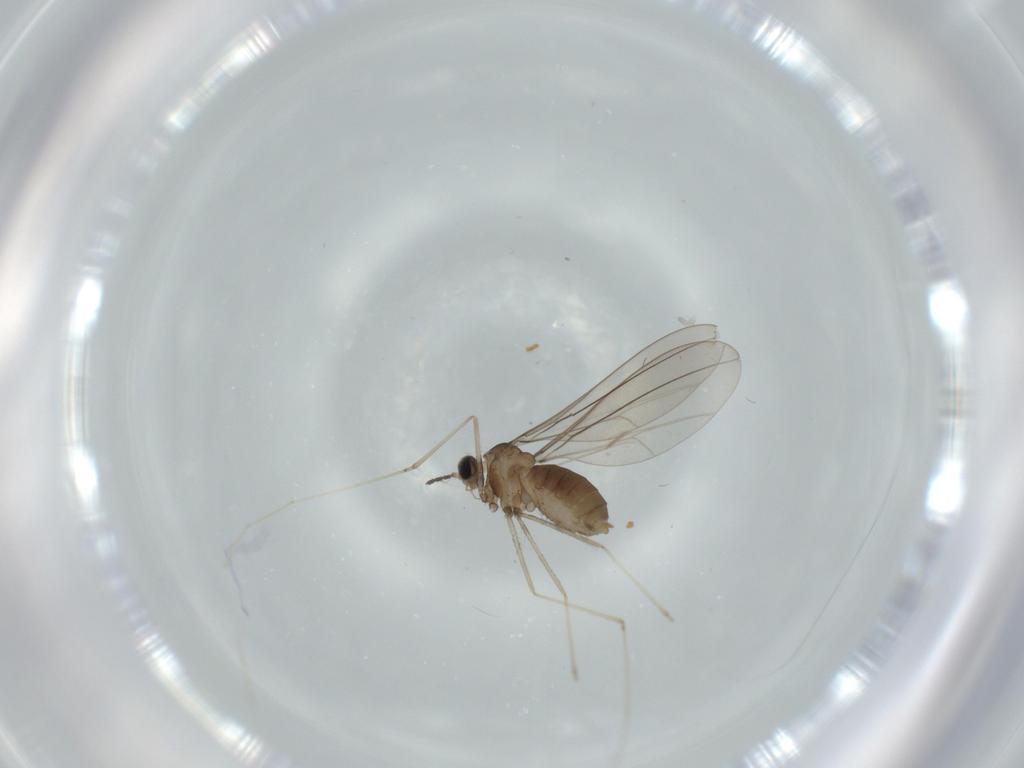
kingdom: Animalia
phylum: Arthropoda
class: Insecta
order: Diptera
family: Cecidomyiidae
